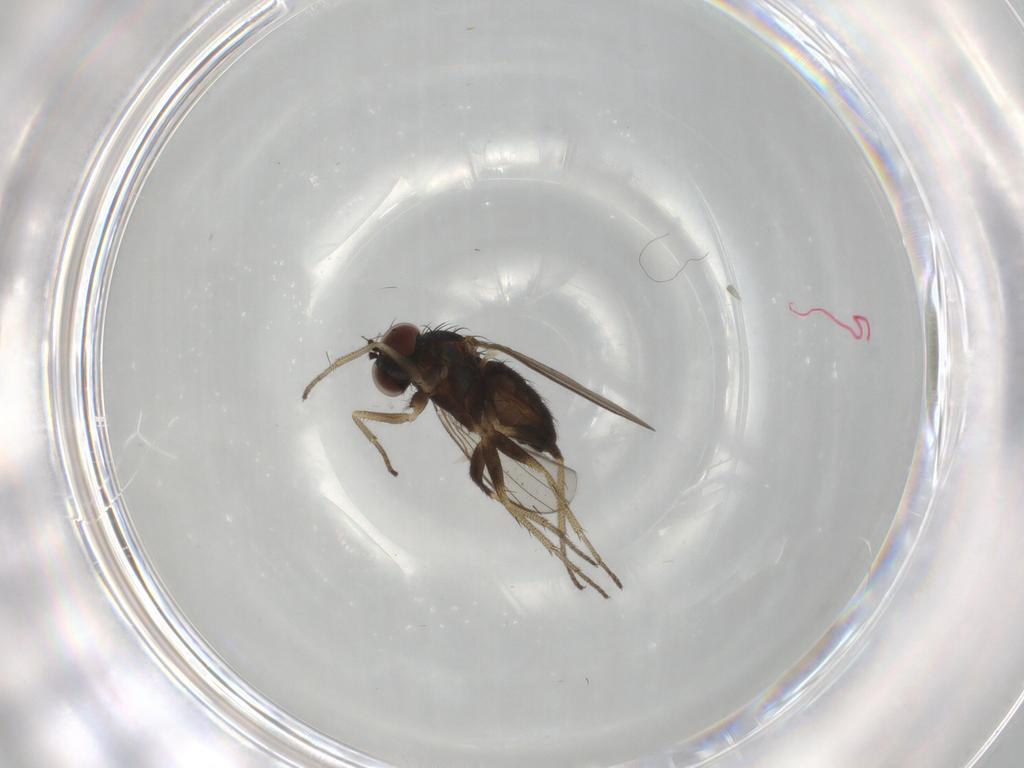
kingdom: Animalia
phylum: Arthropoda
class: Insecta
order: Diptera
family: Chironomidae
